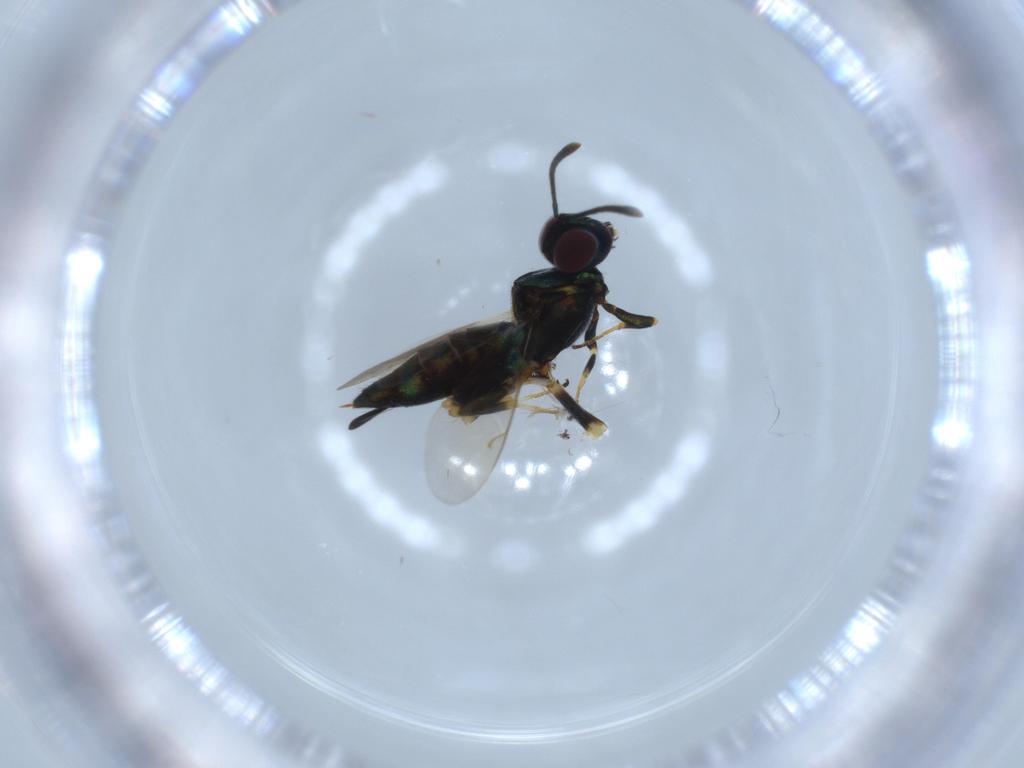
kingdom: Animalia
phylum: Arthropoda
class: Insecta
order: Hymenoptera
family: Eupelmidae
